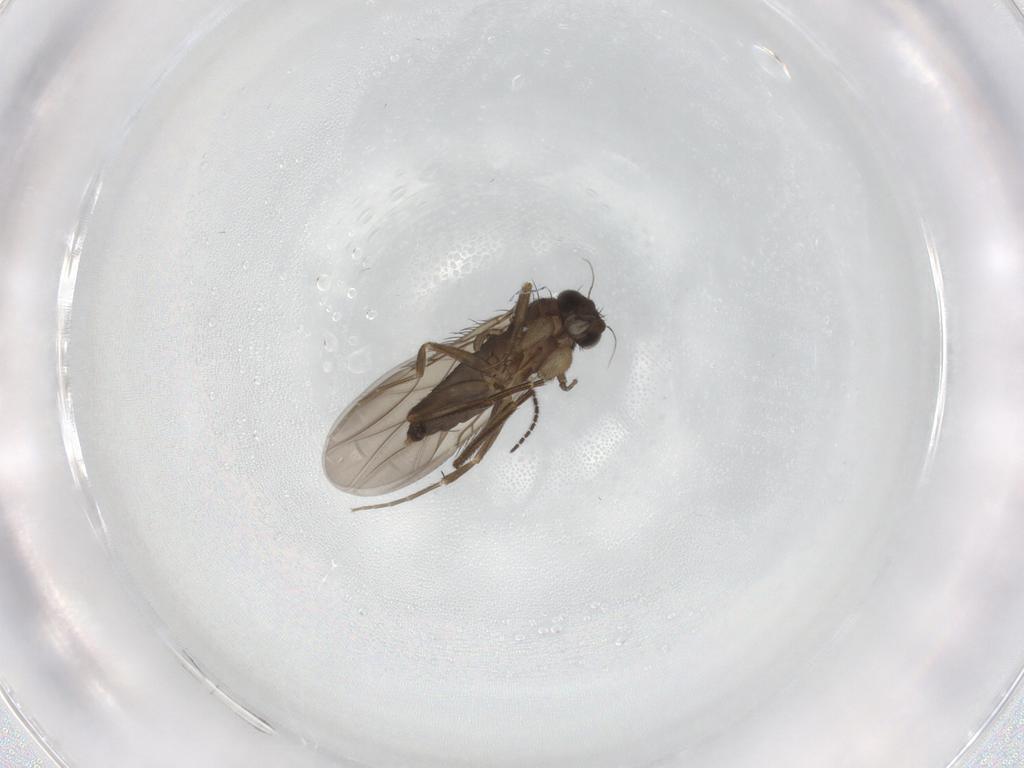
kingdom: Animalia
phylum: Arthropoda
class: Insecta
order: Diptera
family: Phoridae
